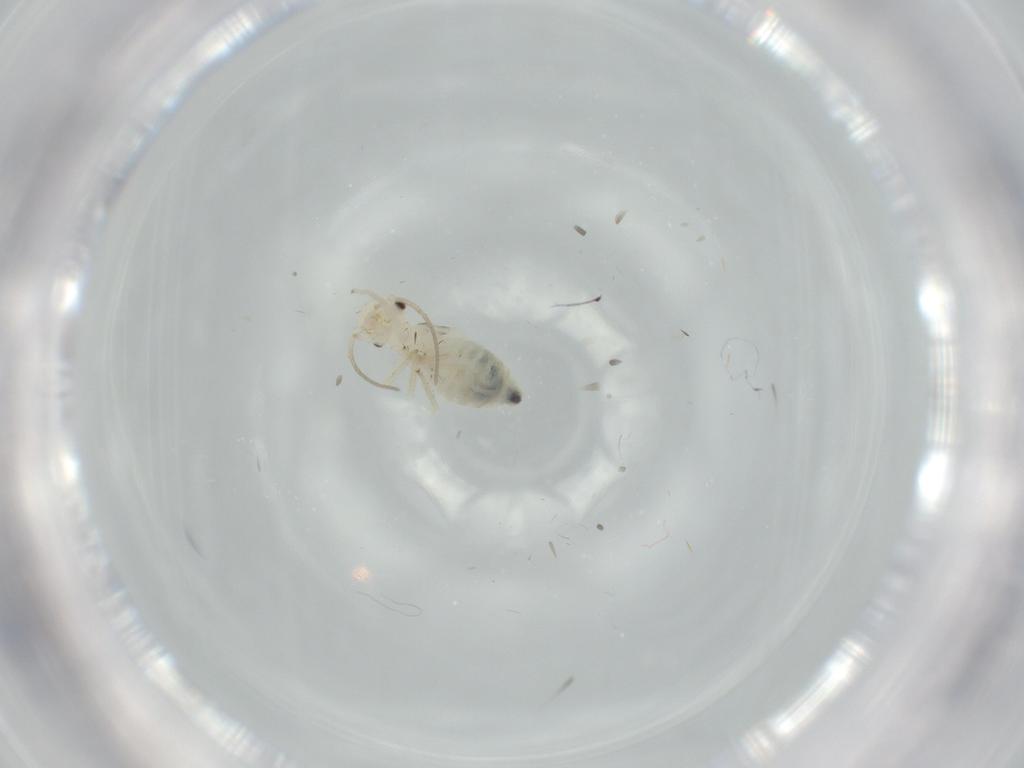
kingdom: Animalia
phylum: Arthropoda
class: Insecta
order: Psocodea
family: Caeciliusidae
